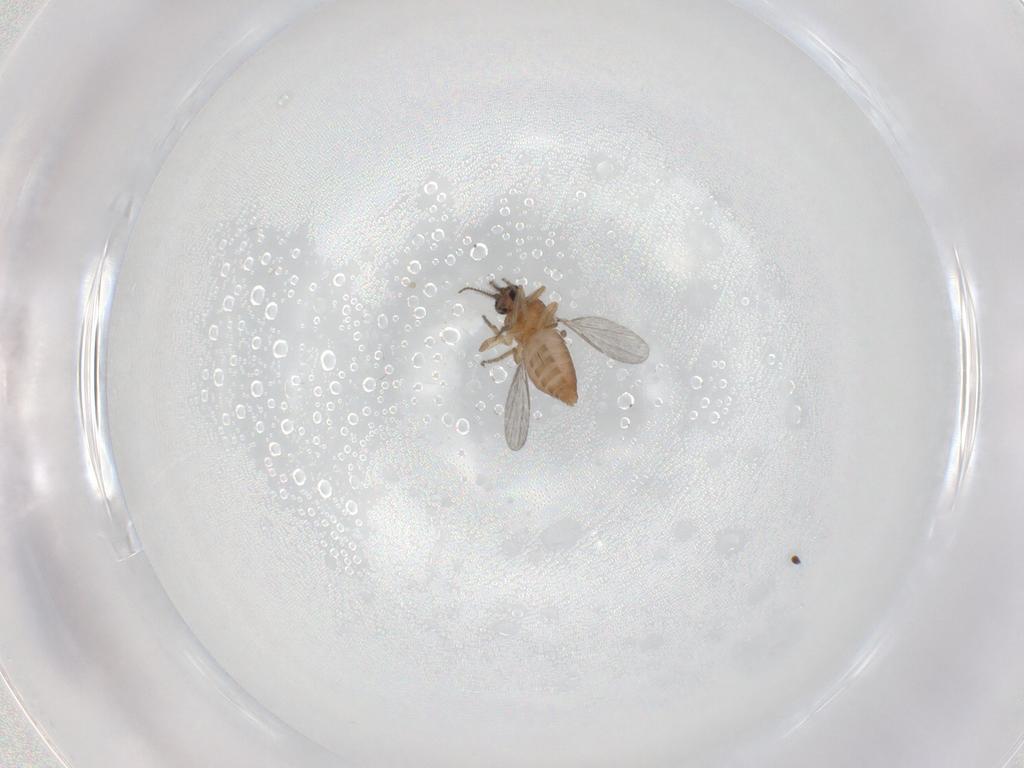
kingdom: Animalia
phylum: Arthropoda
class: Insecta
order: Diptera
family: Ceratopogonidae
